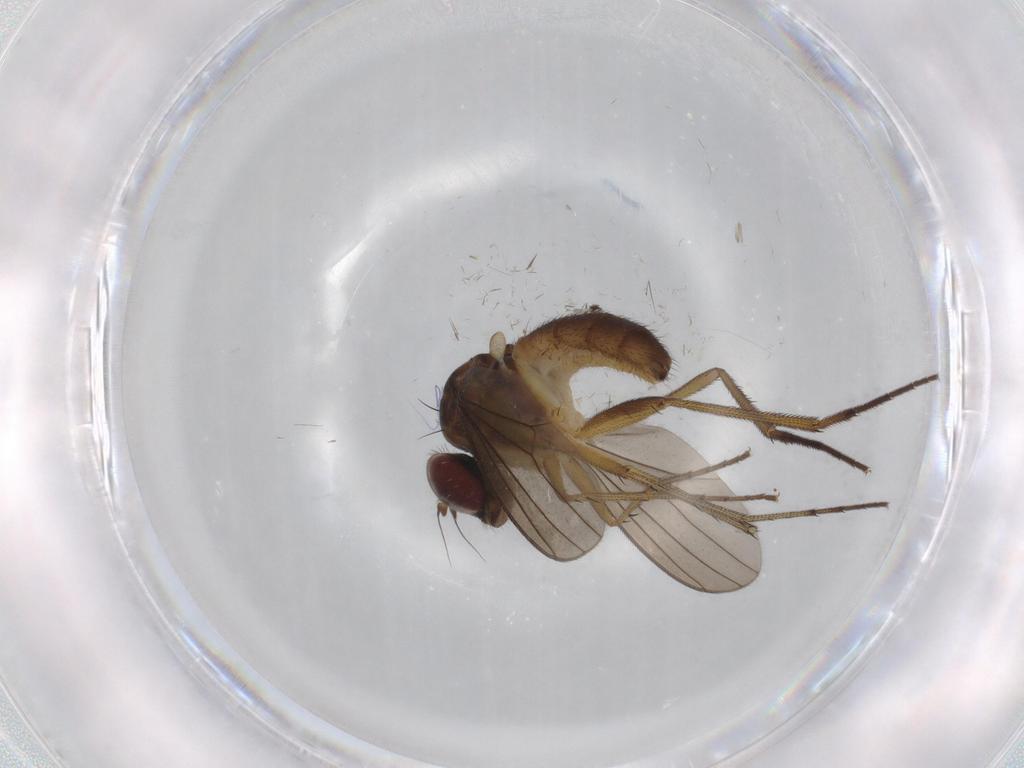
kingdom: Animalia
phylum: Arthropoda
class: Insecta
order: Diptera
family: Dolichopodidae
